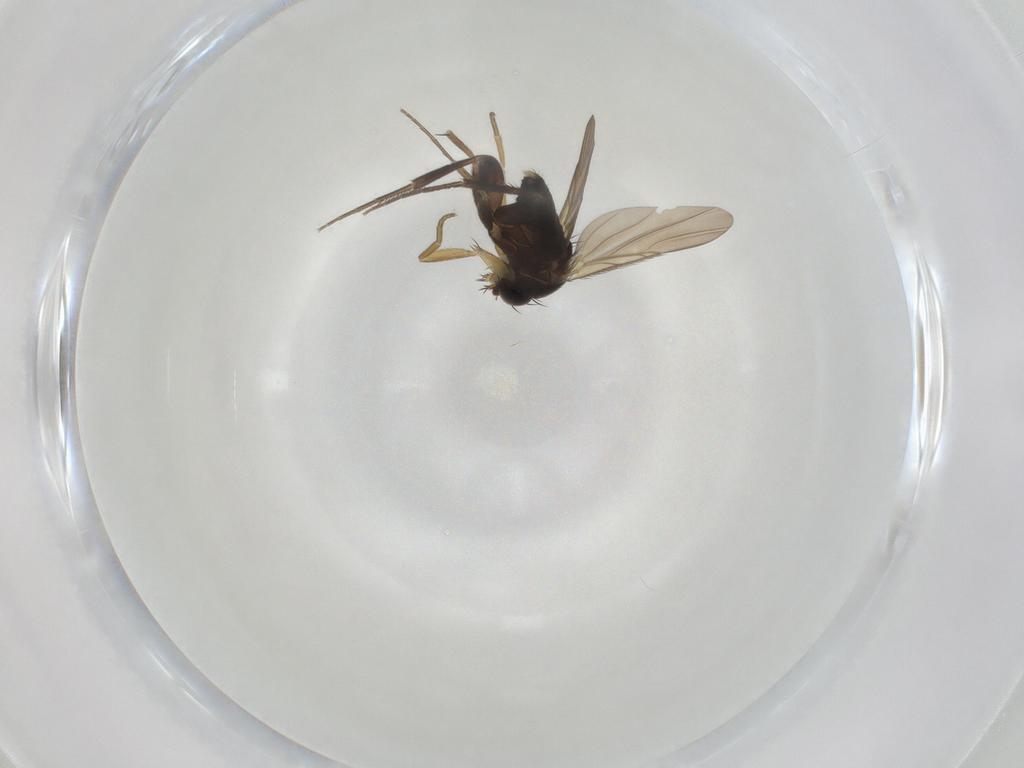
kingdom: Animalia
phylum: Arthropoda
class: Insecta
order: Diptera
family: Phoridae
